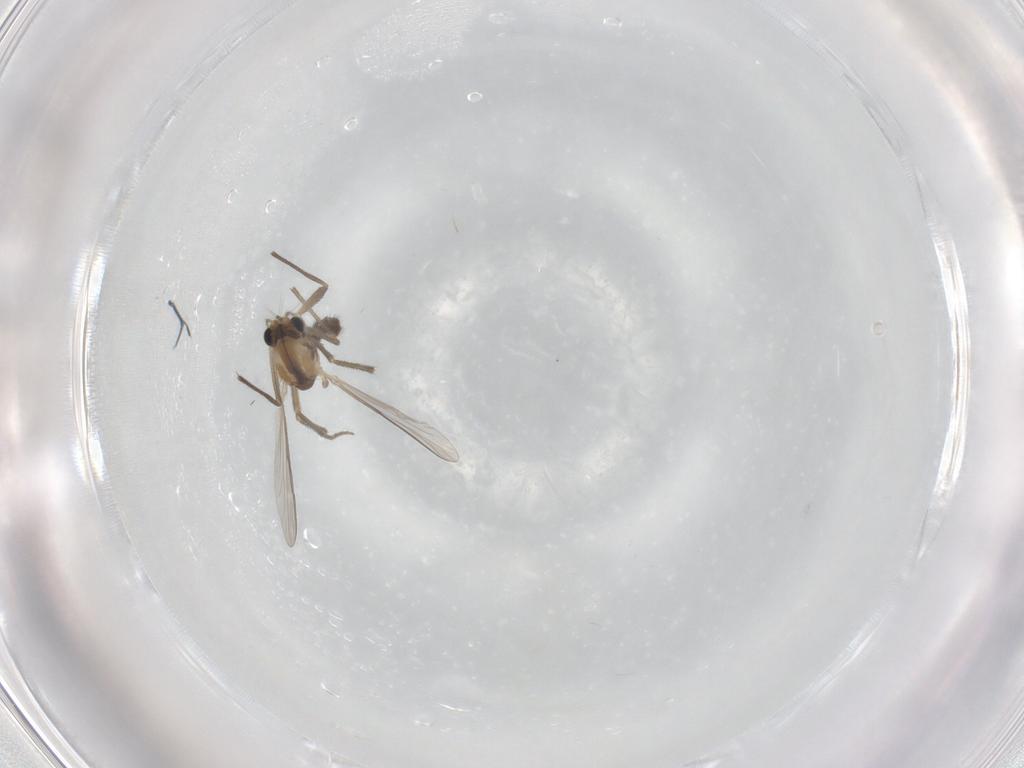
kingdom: Animalia
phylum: Arthropoda
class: Insecta
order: Diptera
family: Chironomidae
